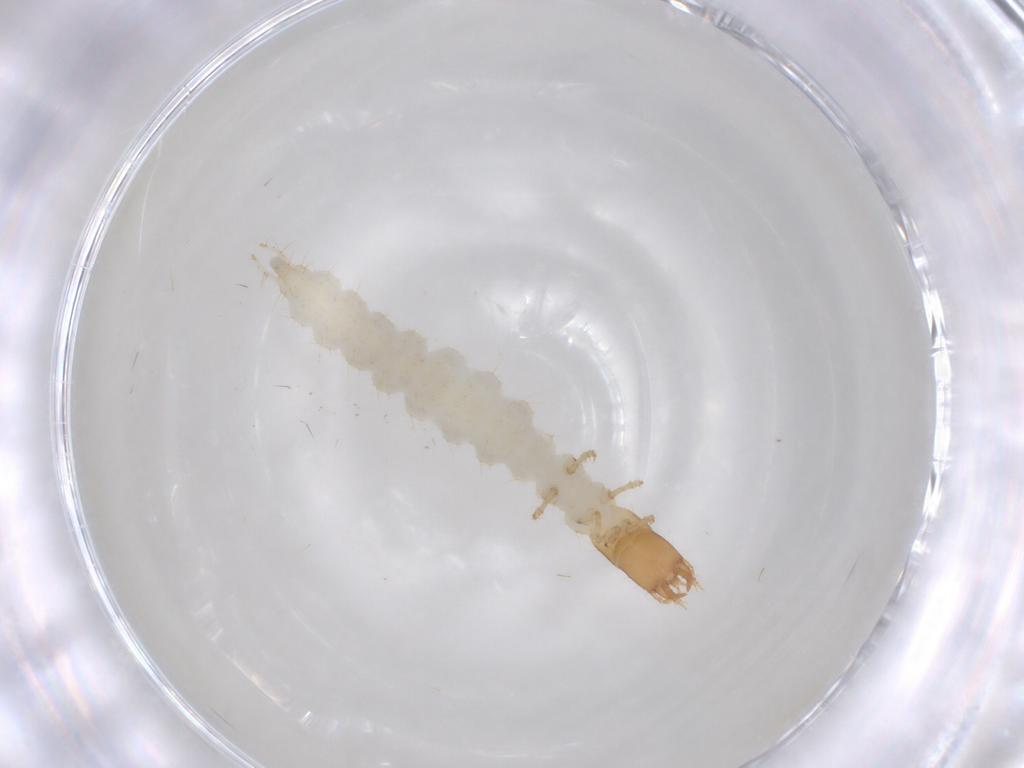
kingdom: Animalia
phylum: Arthropoda
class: Insecta
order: Coleoptera
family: Carabidae
